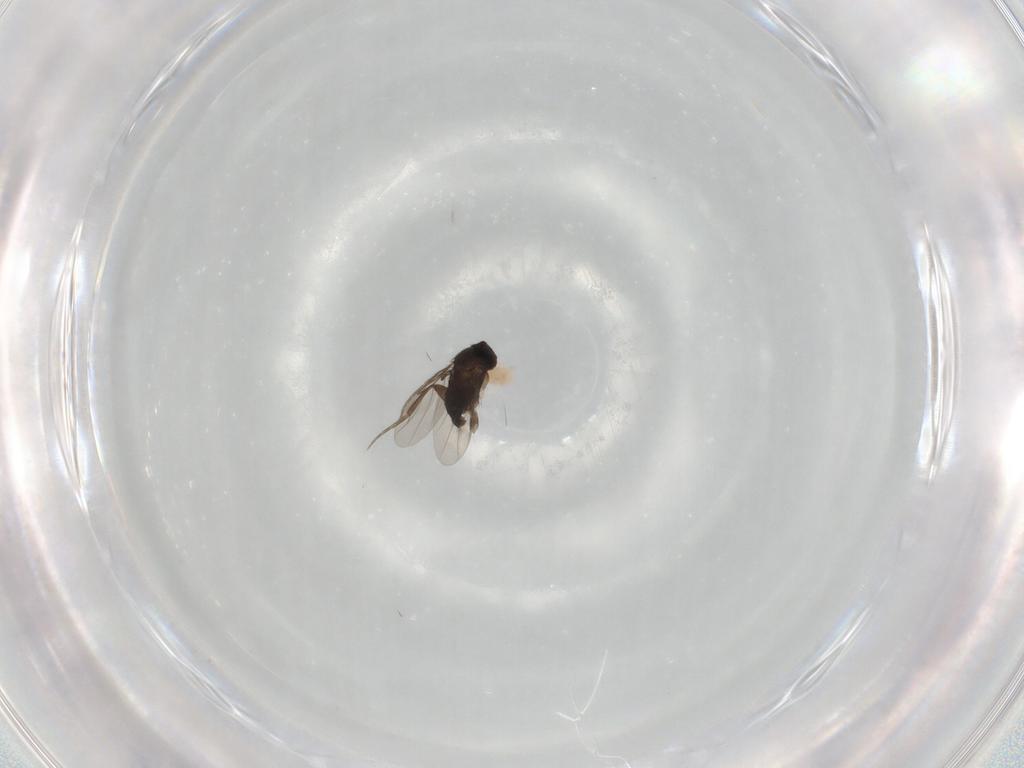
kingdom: Animalia
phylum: Arthropoda
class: Insecta
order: Diptera
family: Phoridae
